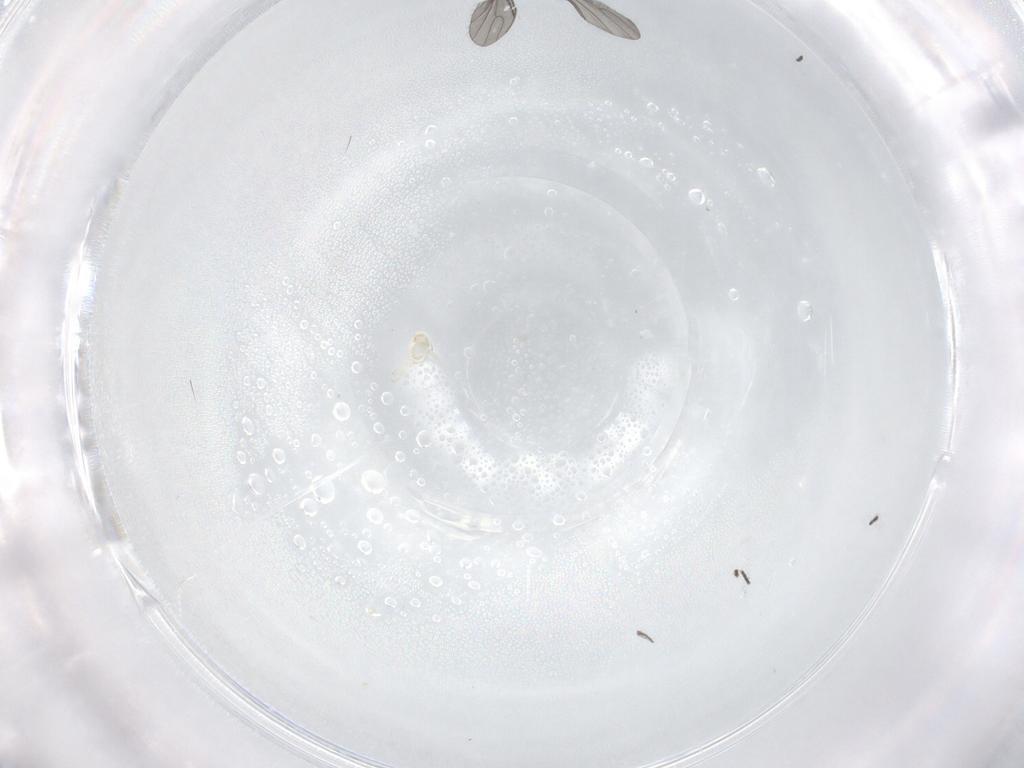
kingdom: Animalia
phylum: Arthropoda
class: Insecta
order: Diptera
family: Sciaridae
